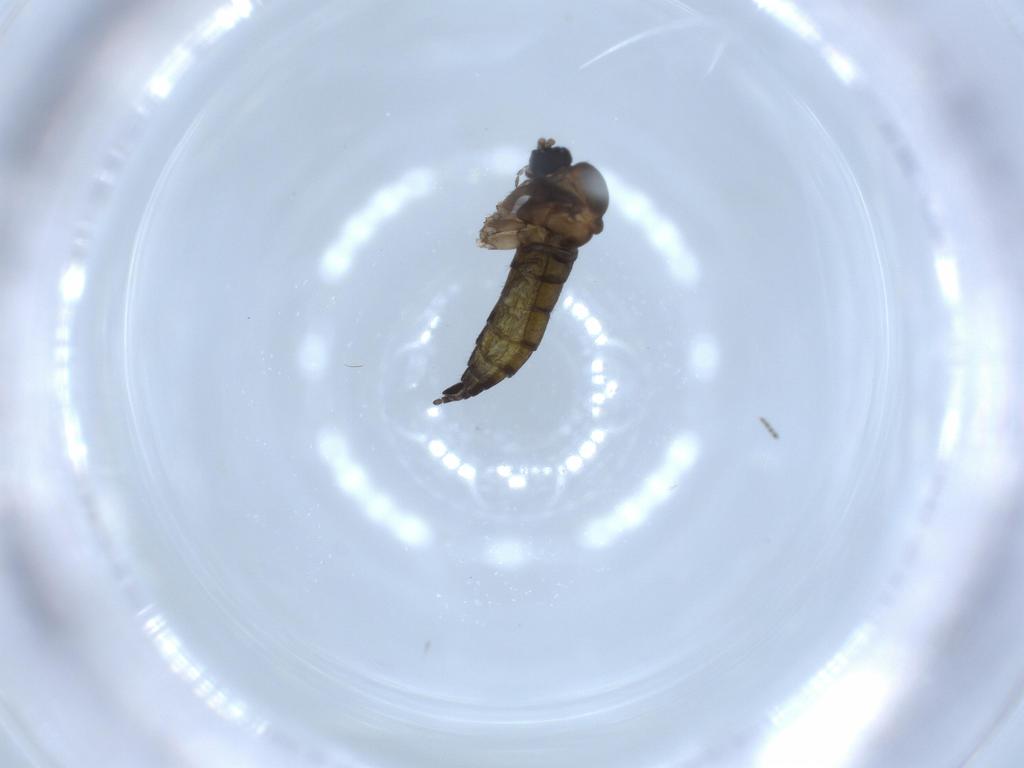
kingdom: Animalia
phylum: Arthropoda
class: Insecta
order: Diptera
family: Sciaridae
